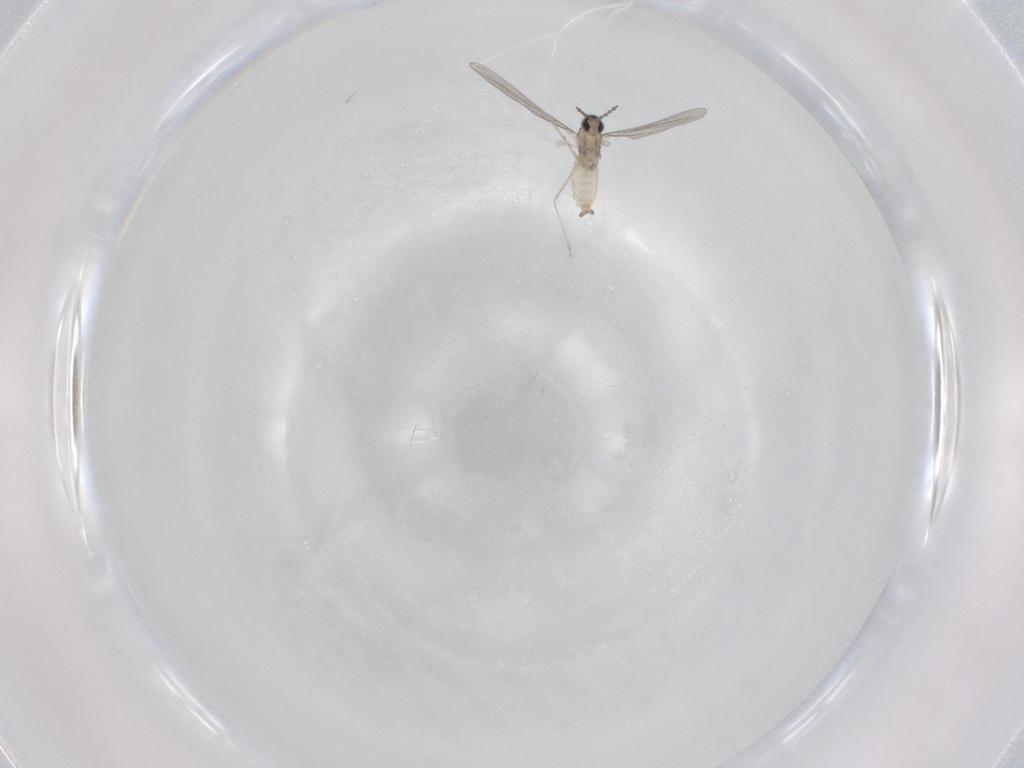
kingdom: Animalia
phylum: Arthropoda
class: Insecta
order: Diptera
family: Cecidomyiidae
